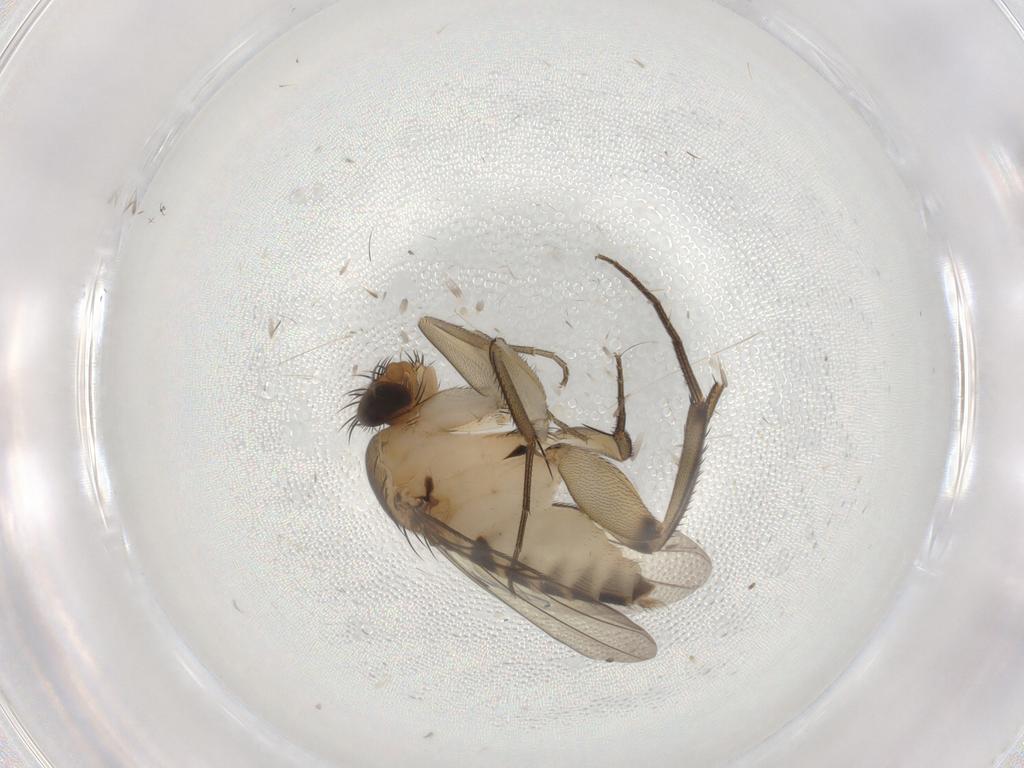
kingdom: Animalia
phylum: Arthropoda
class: Insecta
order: Diptera
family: Phoridae
